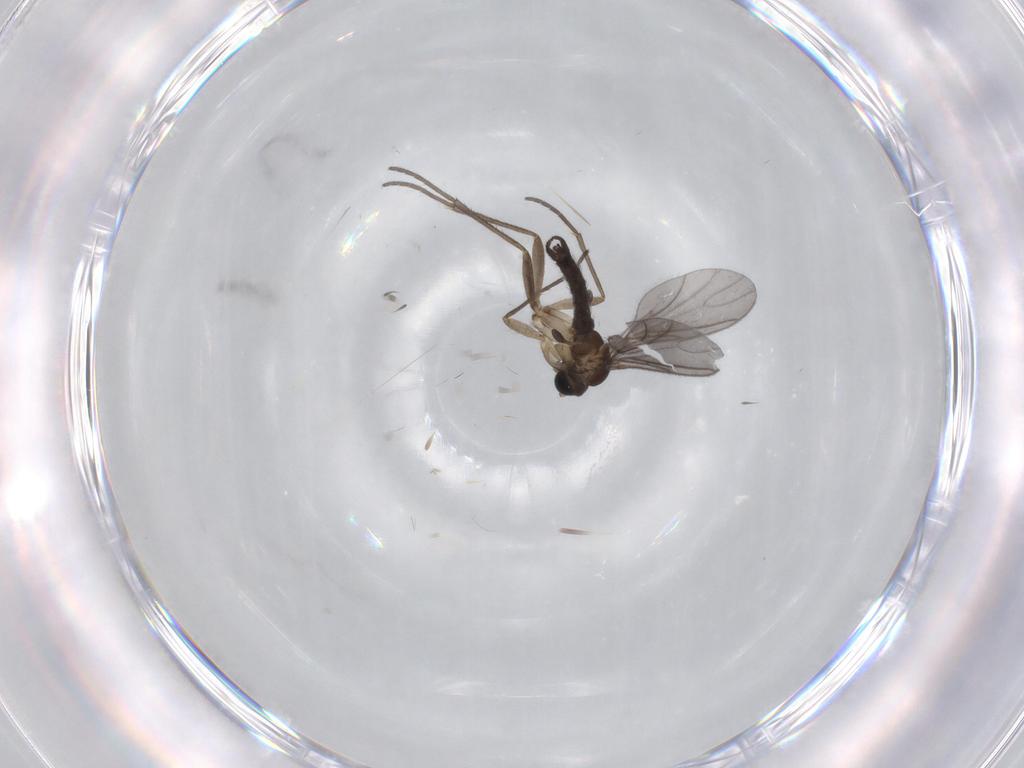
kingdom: Animalia
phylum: Arthropoda
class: Insecta
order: Diptera
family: Sciaridae
